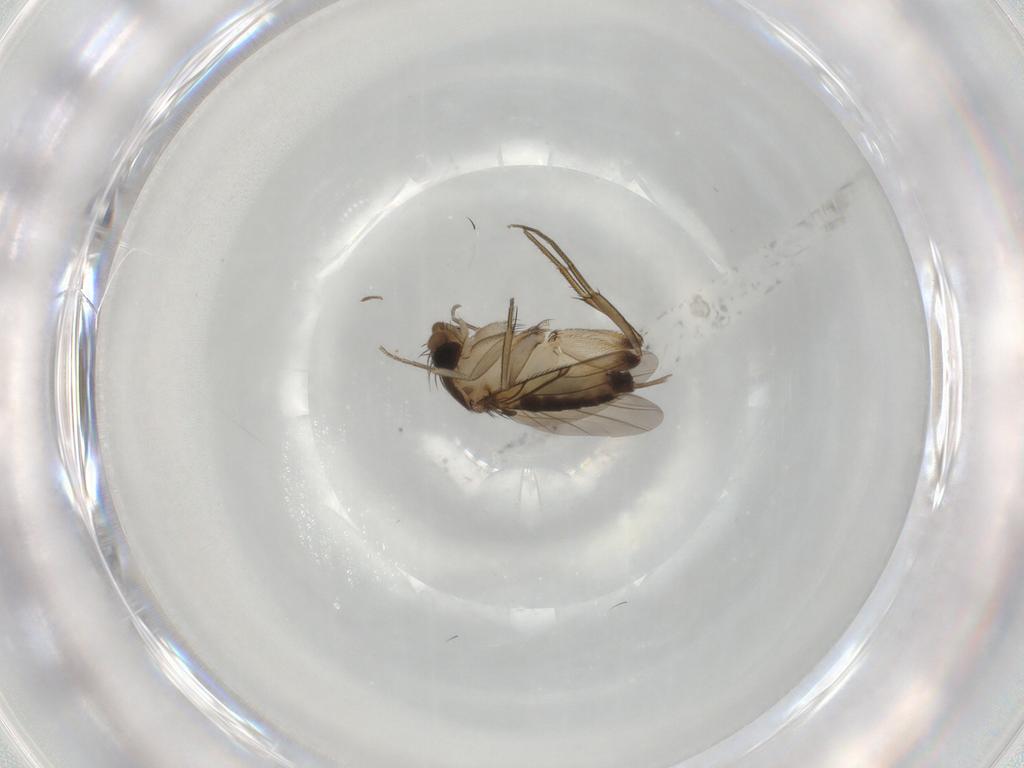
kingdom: Animalia
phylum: Arthropoda
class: Insecta
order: Diptera
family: Phoridae
